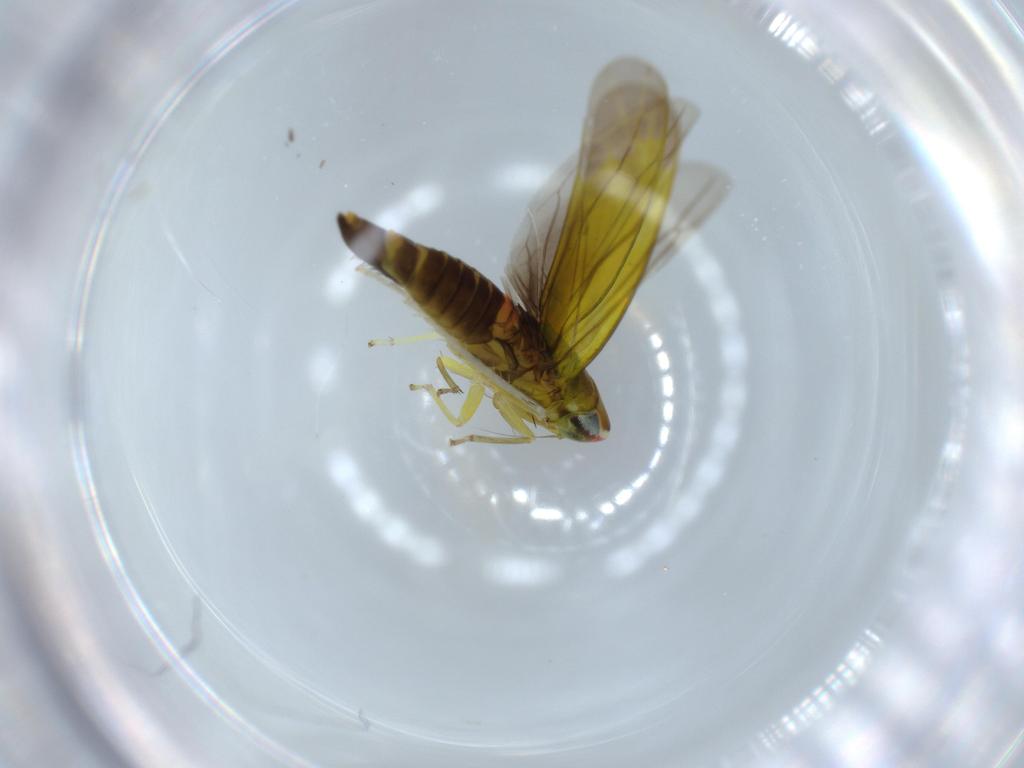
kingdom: Animalia
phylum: Arthropoda
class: Insecta
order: Hemiptera
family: Cicadellidae
